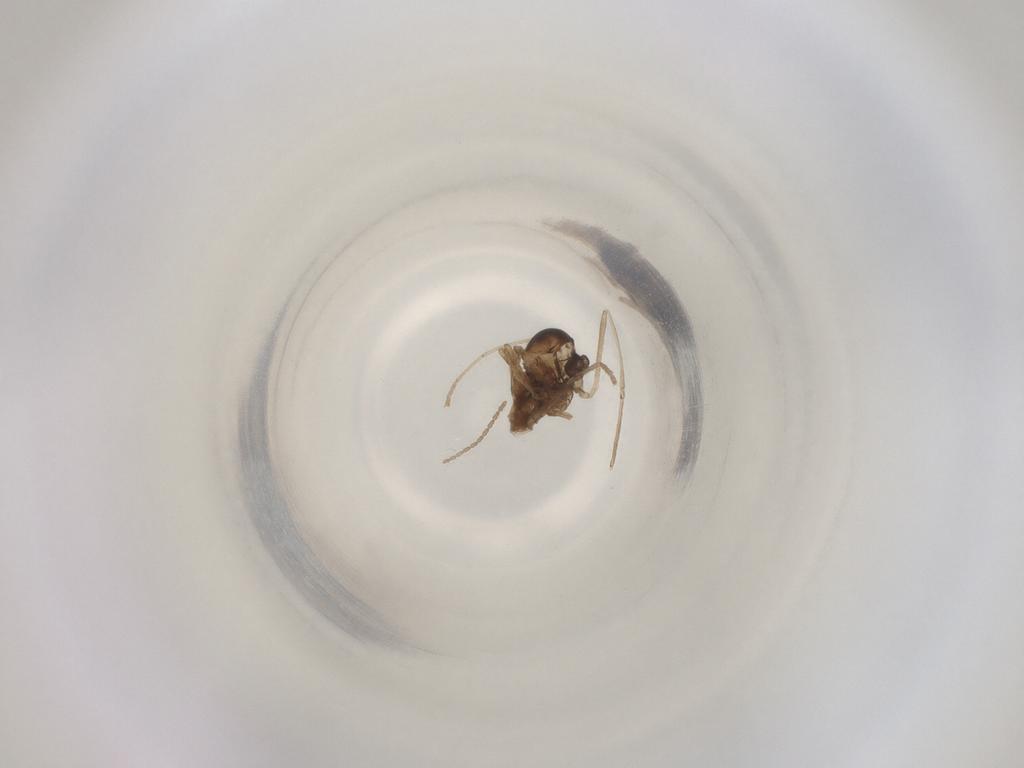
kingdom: Animalia
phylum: Arthropoda
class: Insecta
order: Diptera
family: Cecidomyiidae
